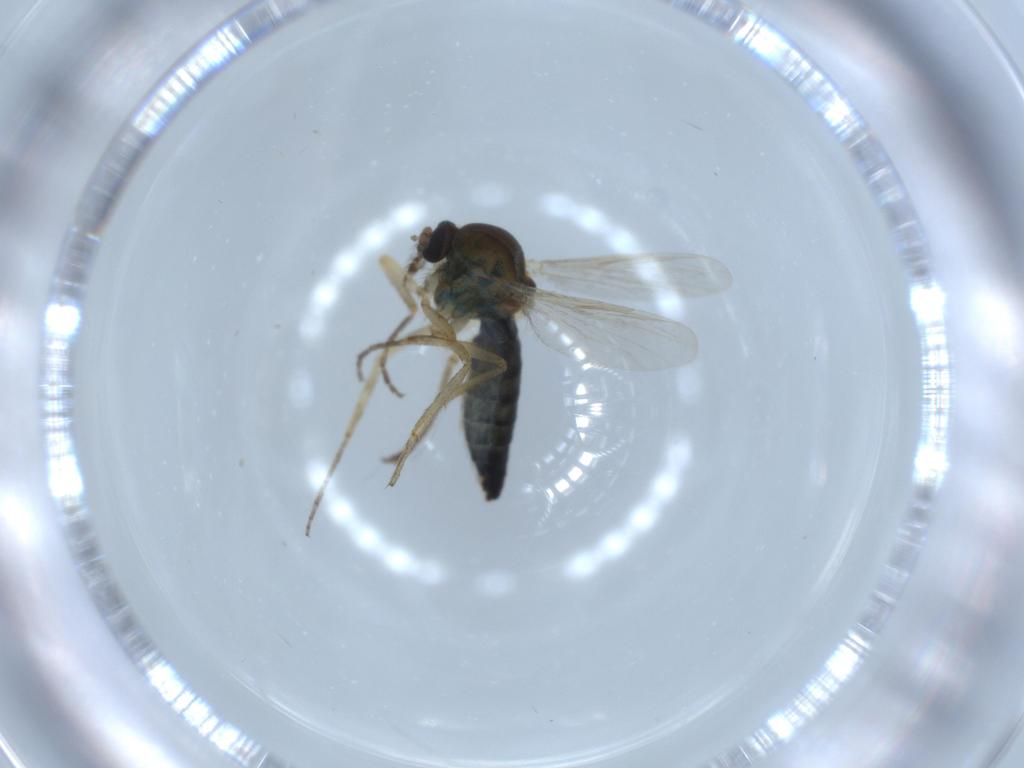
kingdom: Animalia
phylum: Arthropoda
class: Insecta
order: Diptera
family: Ceratopogonidae
